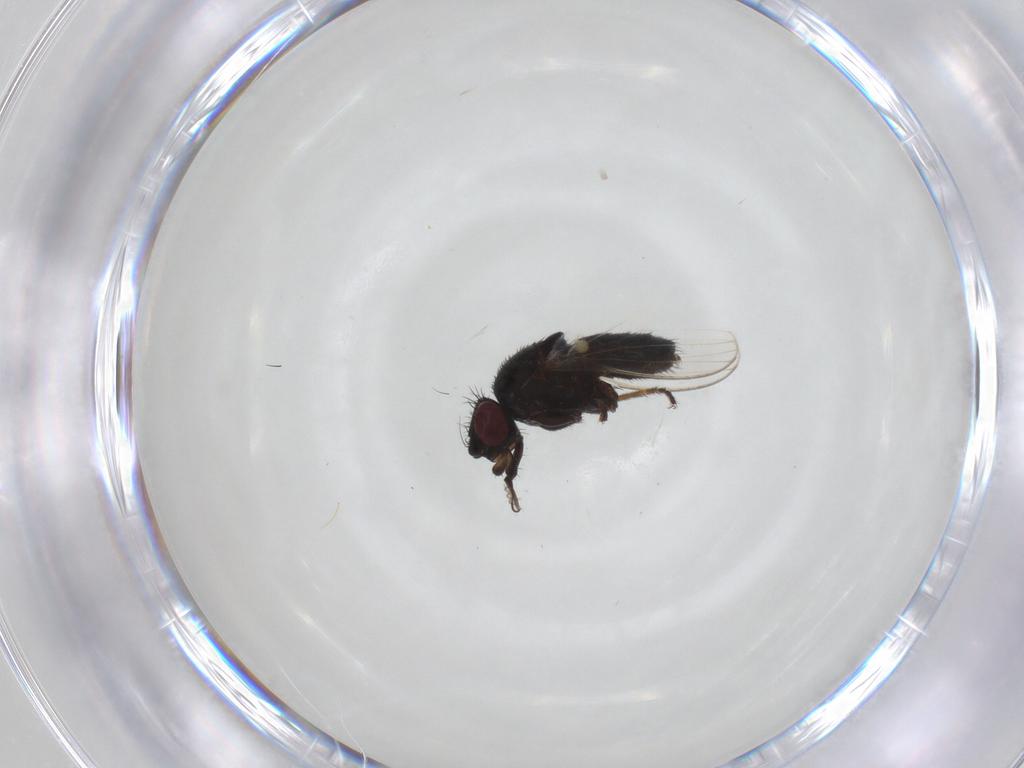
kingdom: Animalia
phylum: Arthropoda
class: Insecta
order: Diptera
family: Milichiidae
